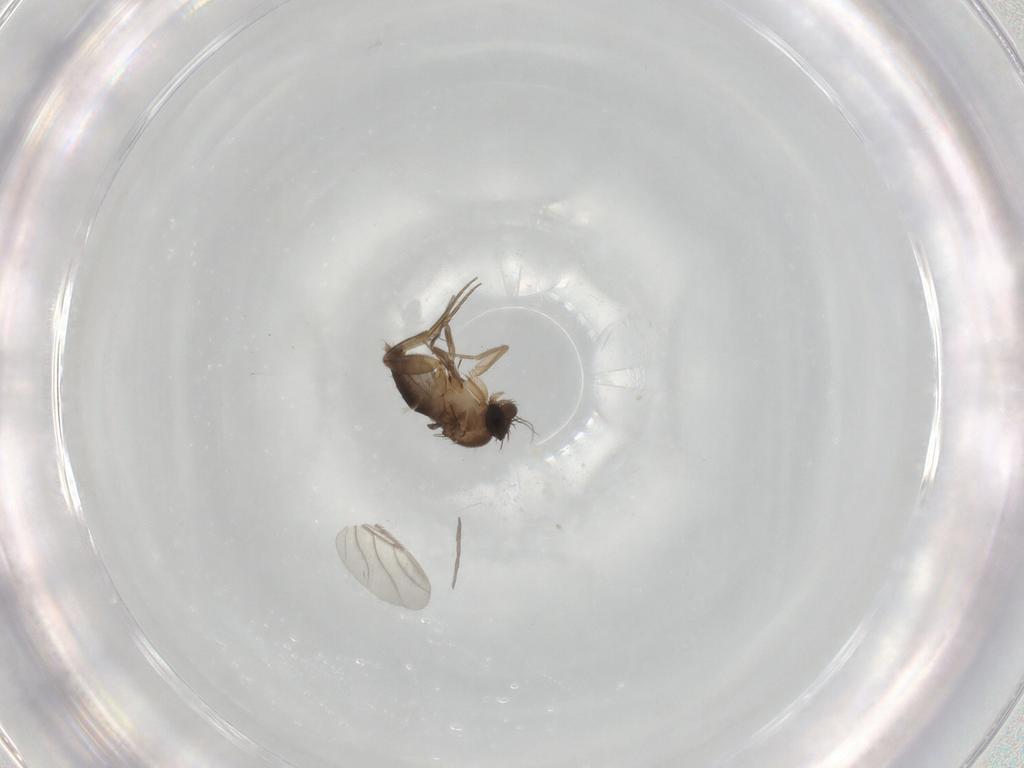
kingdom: Animalia
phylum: Arthropoda
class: Insecta
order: Diptera
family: Phoridae
